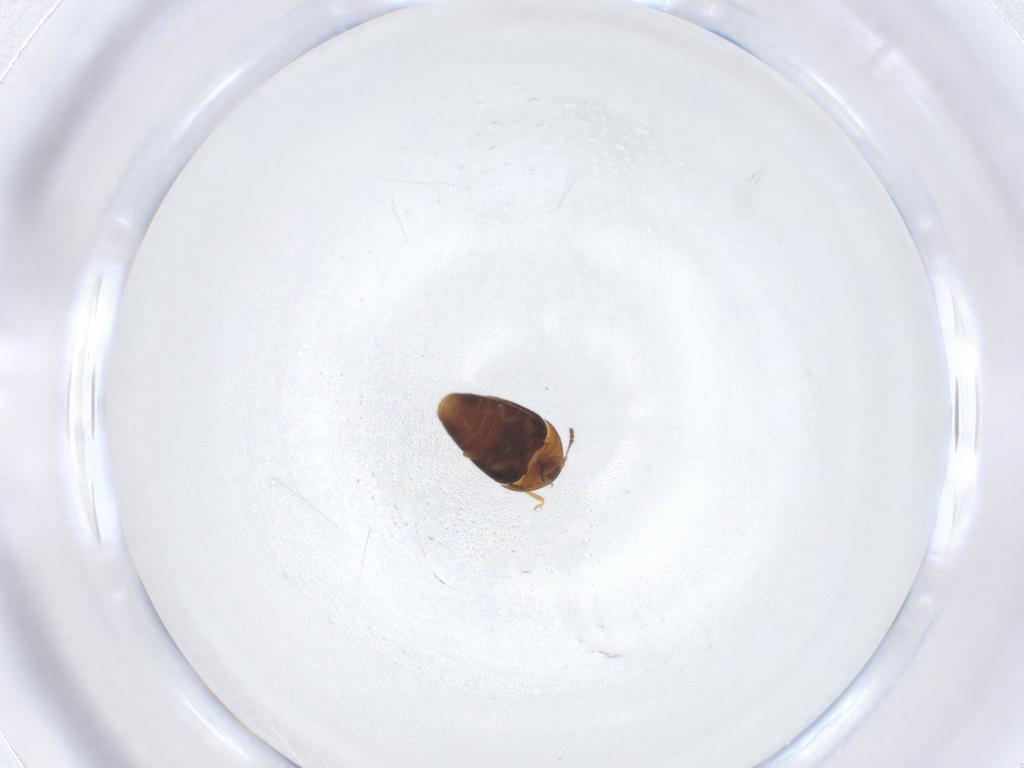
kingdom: Animalia
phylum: Arthropoda
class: Insecta
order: Coleoptera
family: Corylophidae
